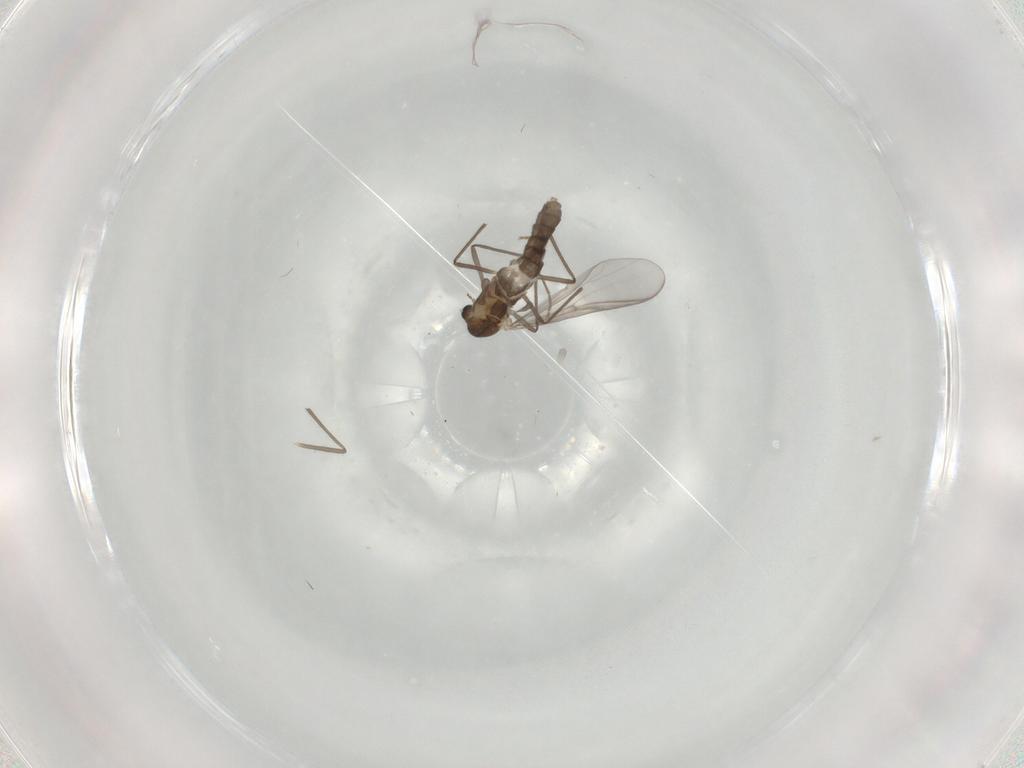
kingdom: Animalia
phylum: Arthropoda
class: Insecta
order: Diptera
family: Chironomidae
